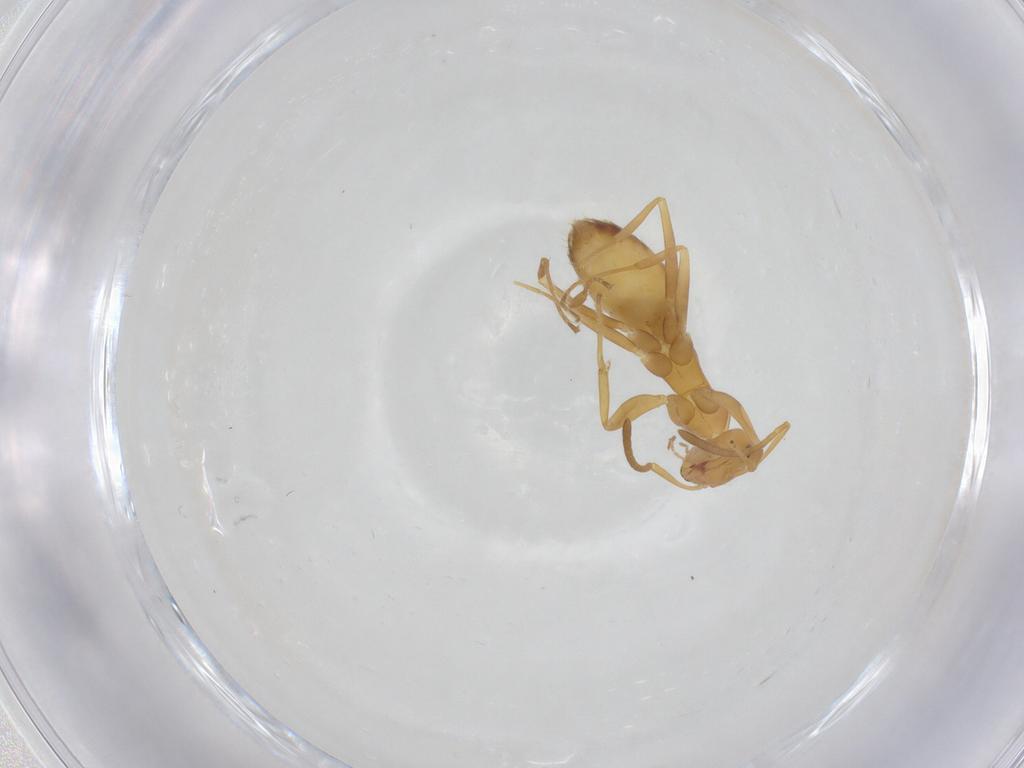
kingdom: Animalia
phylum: Arthropoda
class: Insecta
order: Hymenoptera
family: Formicidae
